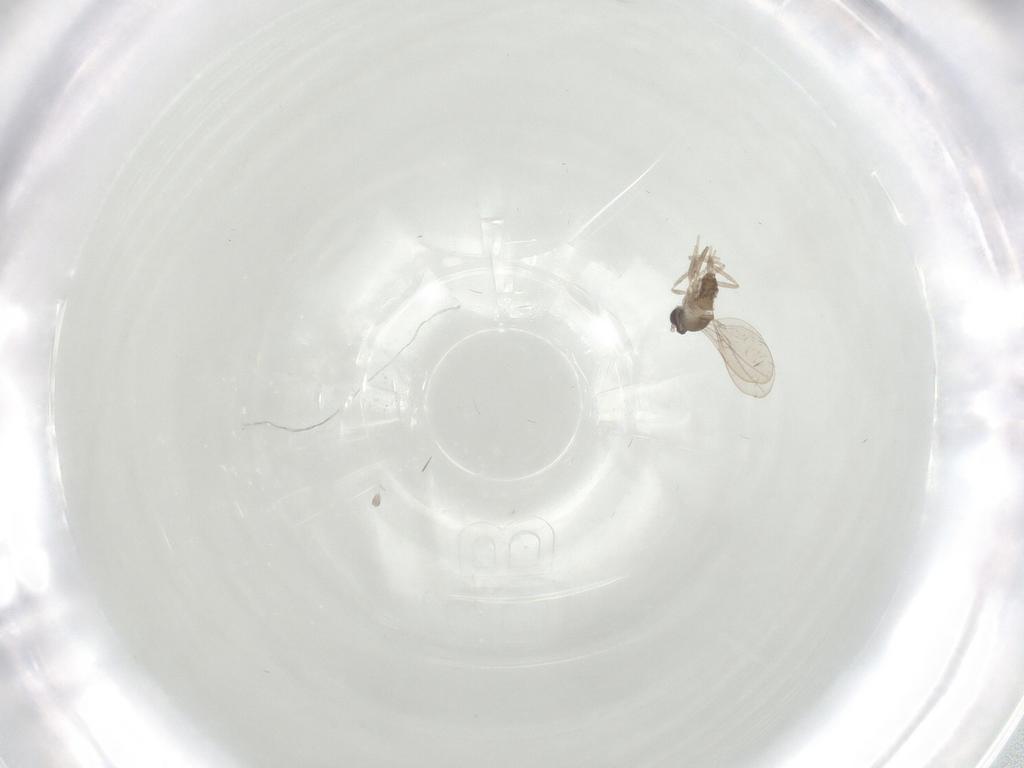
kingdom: Animalia
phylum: Arthropoda
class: Insecta
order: Diptera
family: Cecidomyiidae
